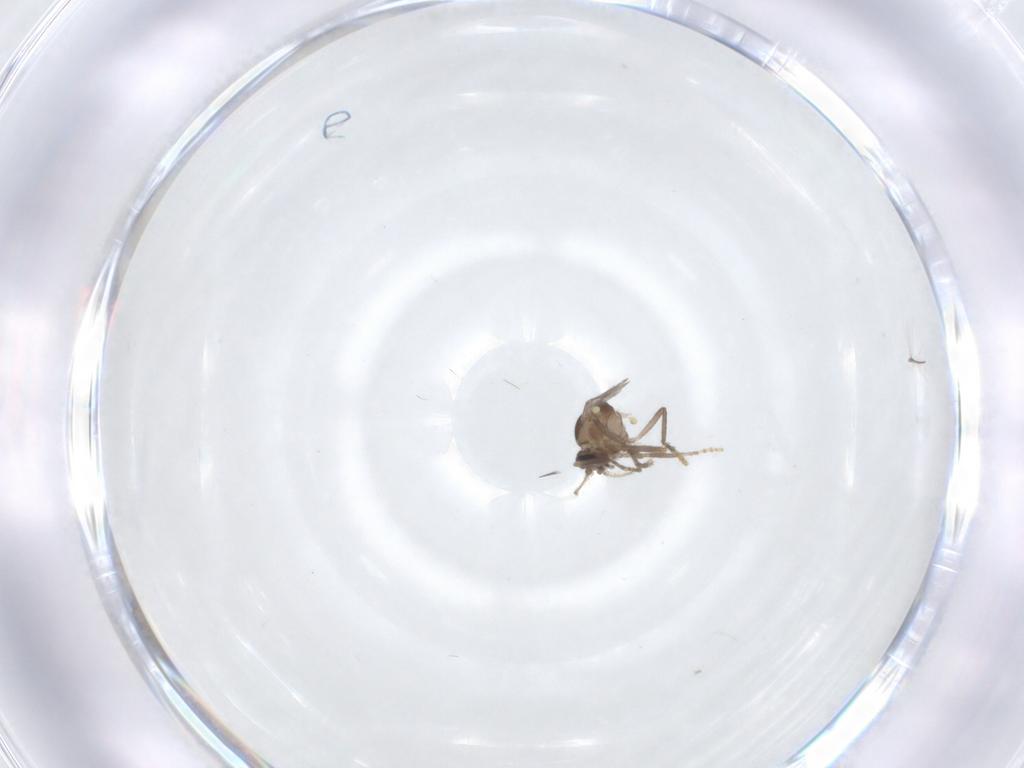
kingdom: Animalia
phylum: Arthropoda
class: Insecta
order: Diptera
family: Ceratopogonidae
